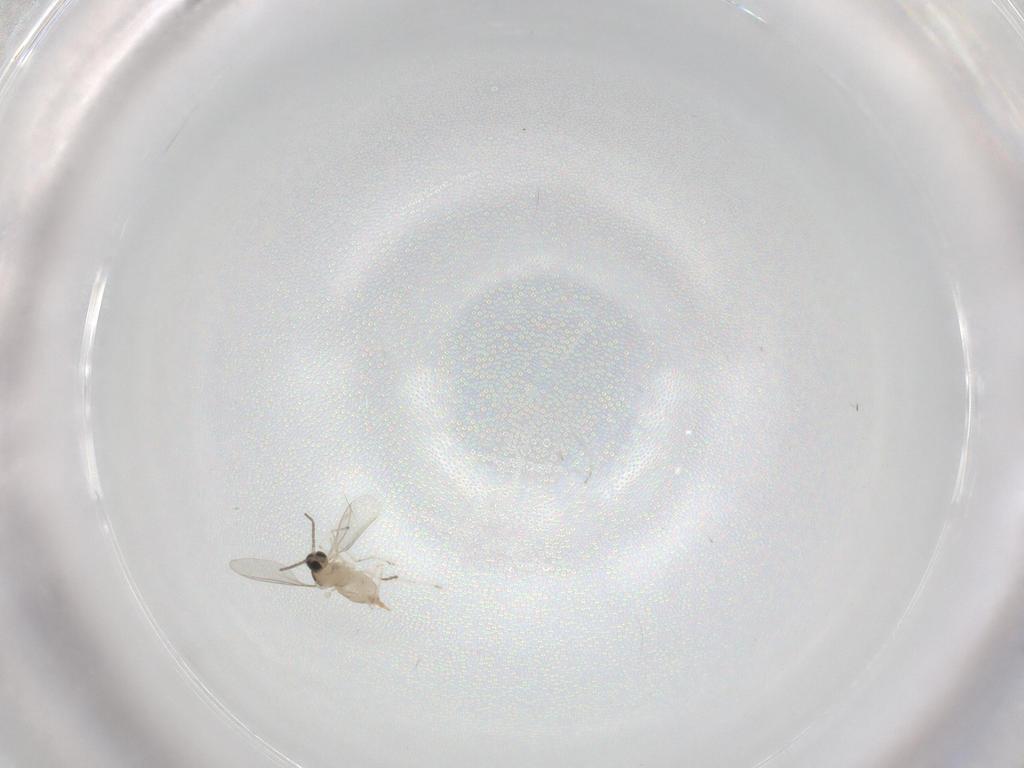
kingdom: Animalia
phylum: Arthropoda
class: Insecta
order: Diptera
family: Cecidomyiidae
